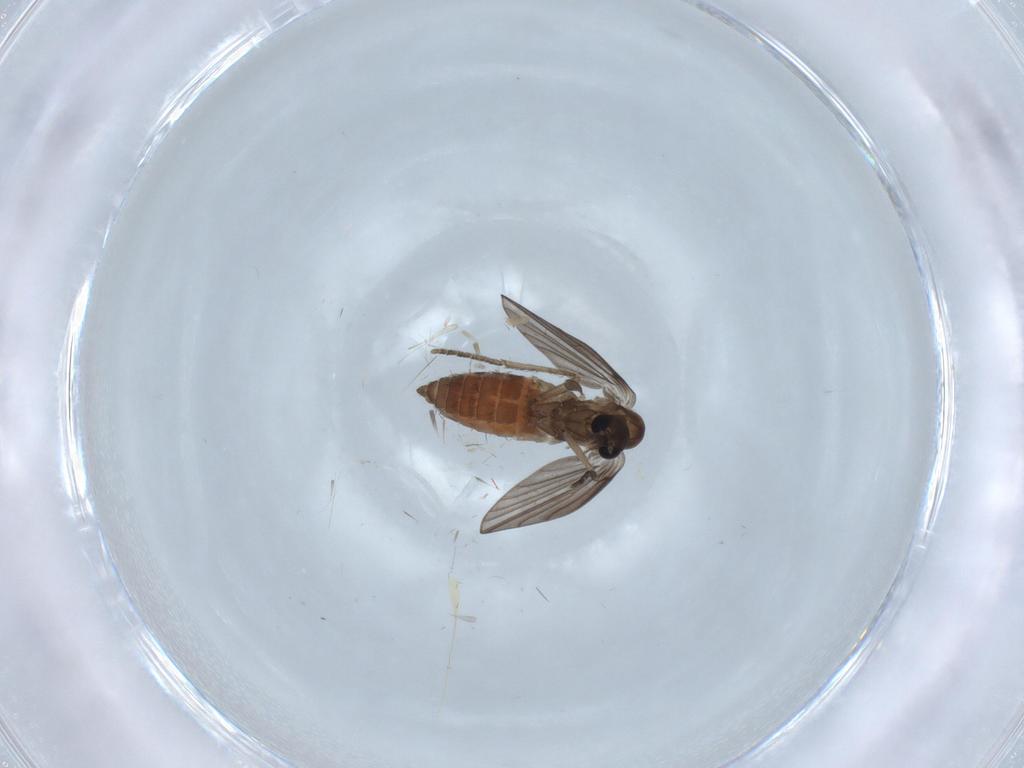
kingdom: Animalia
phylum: Arthropoda
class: Insecta
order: Diptera
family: Psychodidae
